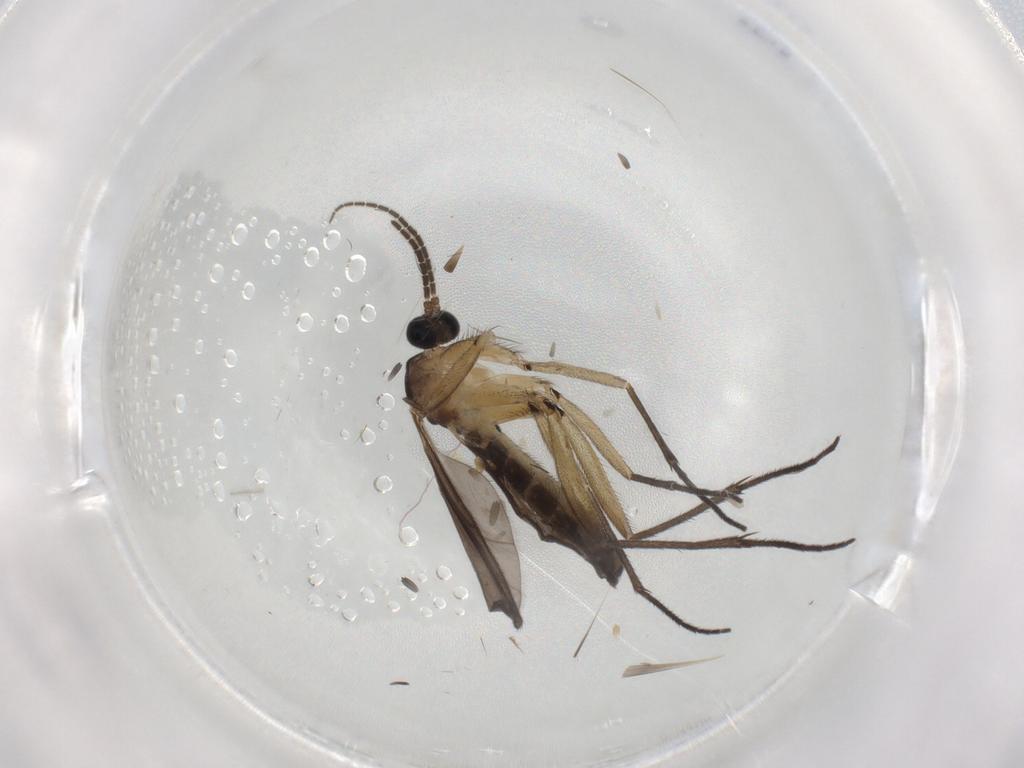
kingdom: Animalia
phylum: Arthropoda
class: Insecta
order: Diptera
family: Sciaridae
